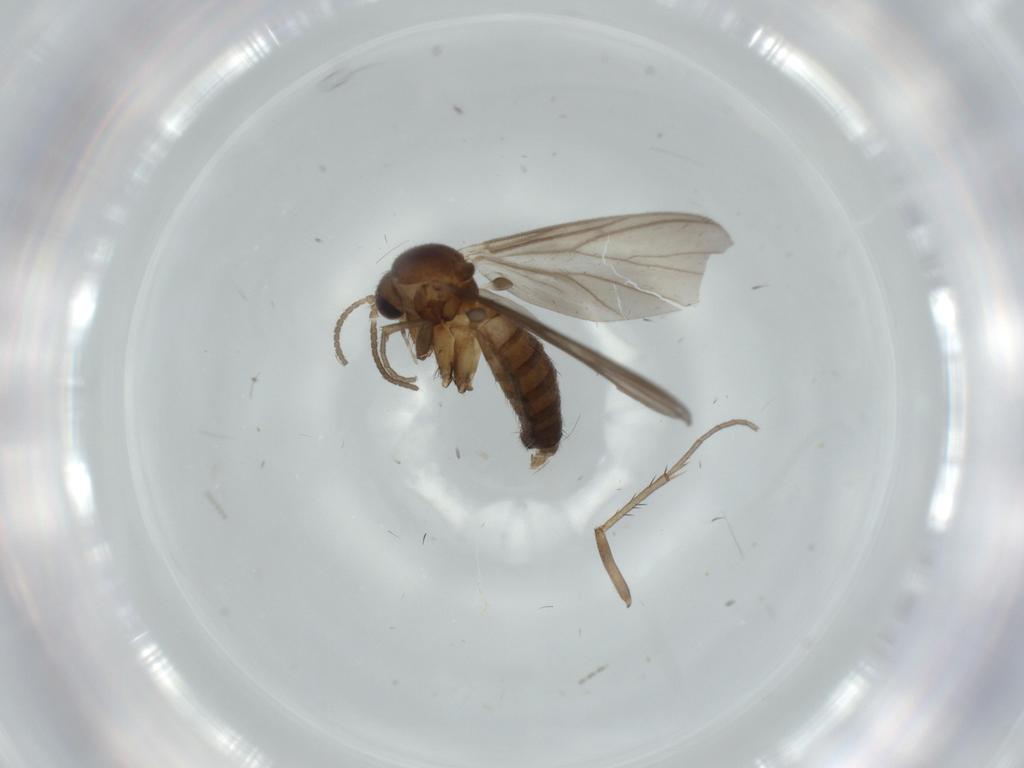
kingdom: Animalia
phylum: Arthropoda
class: Insecta
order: Diptera
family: Mycetophilidae
